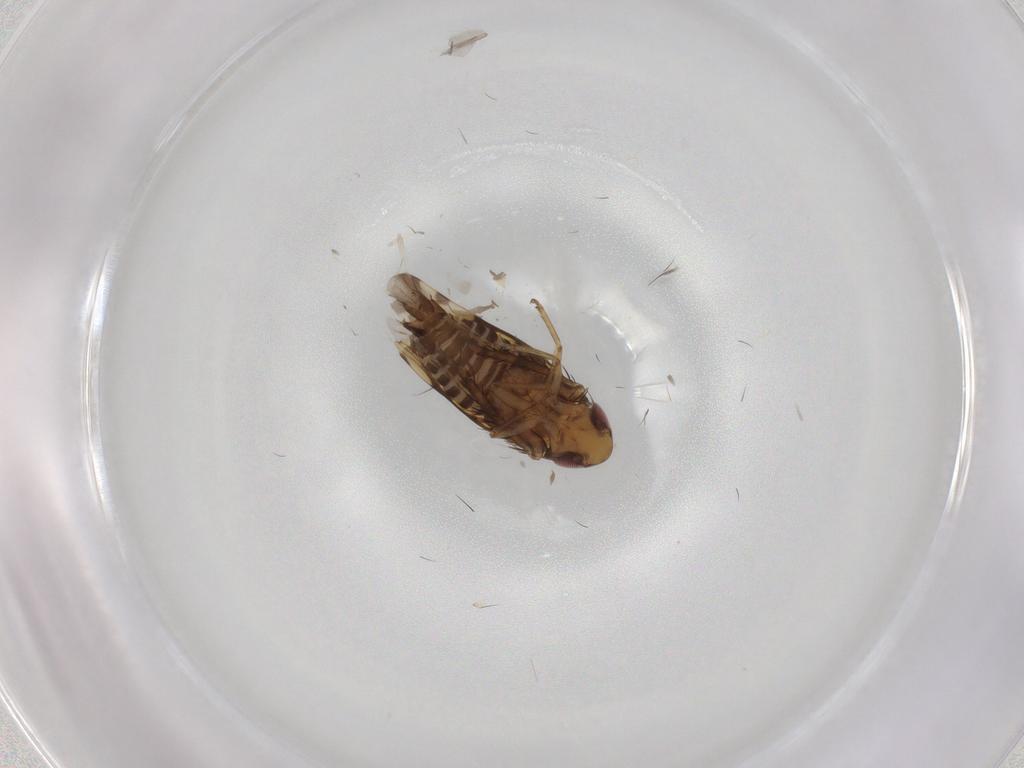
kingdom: Animalia
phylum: Arthropoda
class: Insecta
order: Hemiptera
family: Cicadellidae
